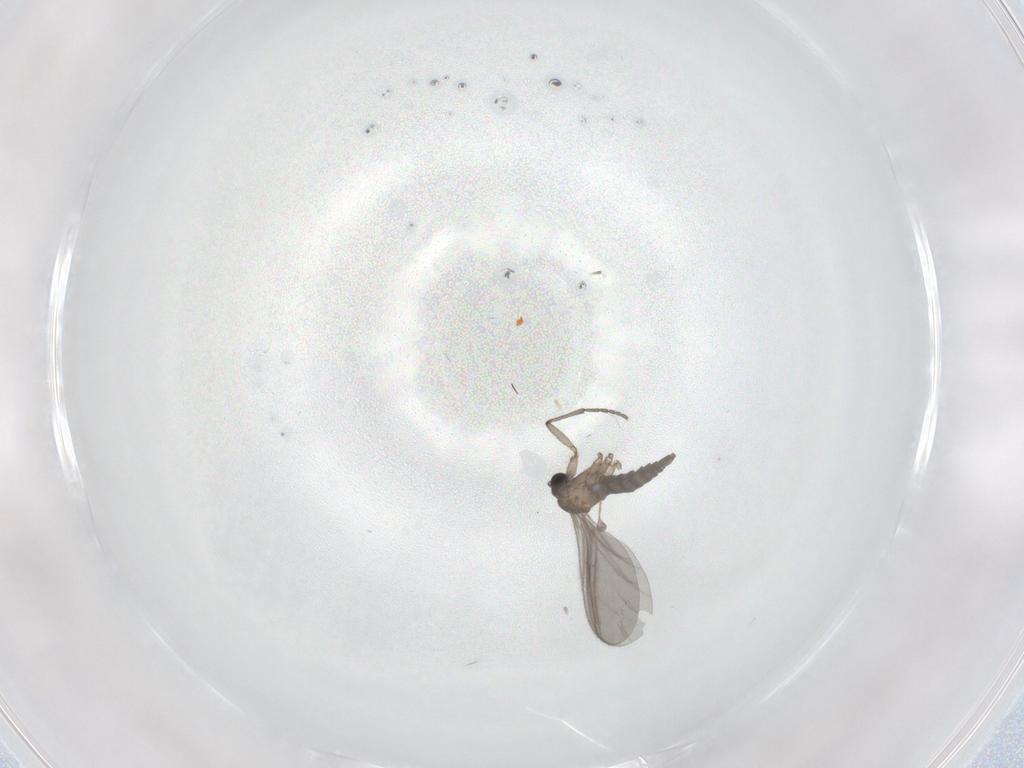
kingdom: Animalia
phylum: Arthropoda
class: Insecta
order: Diptera
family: Sciaridae
